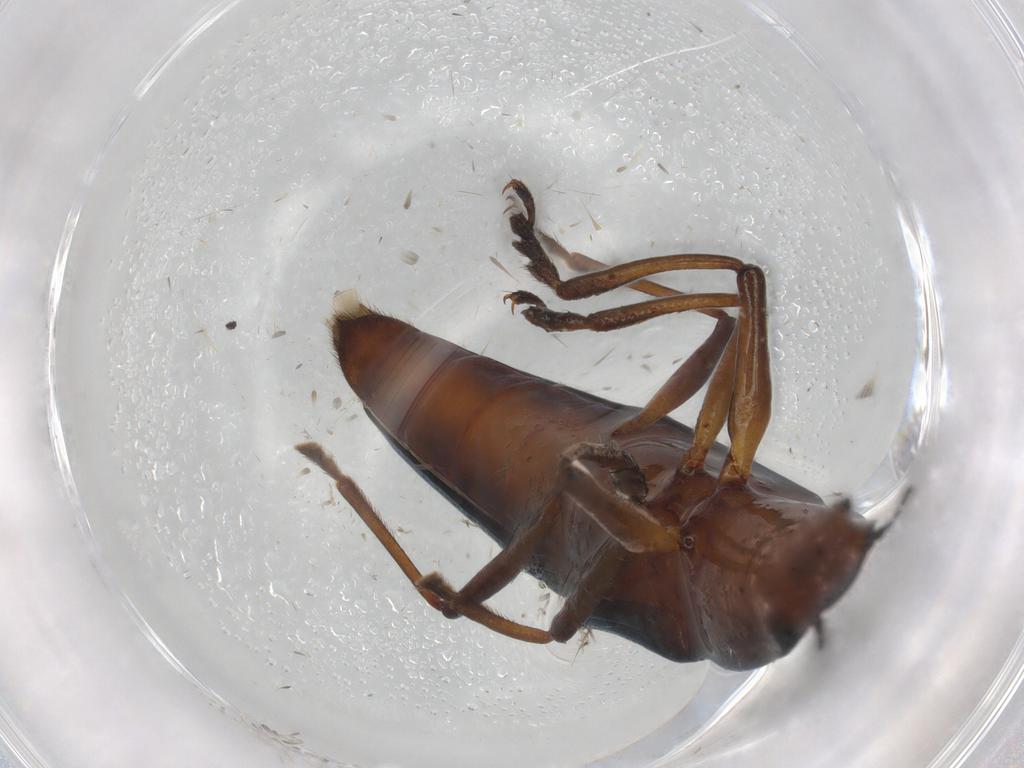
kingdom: Animalia
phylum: Arthropoda
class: Insecta
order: Coleoptera
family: Erotylidae
